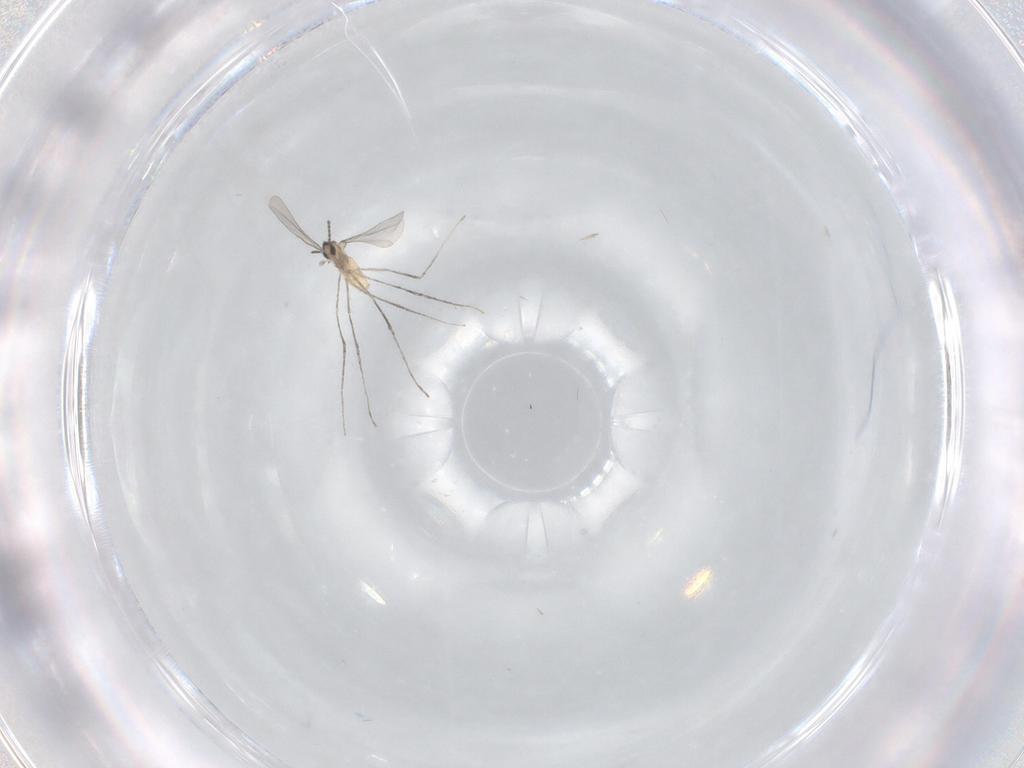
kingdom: Animalia
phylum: Arthropoda
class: Insecta
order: Diptera
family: Cecidomyiidae
